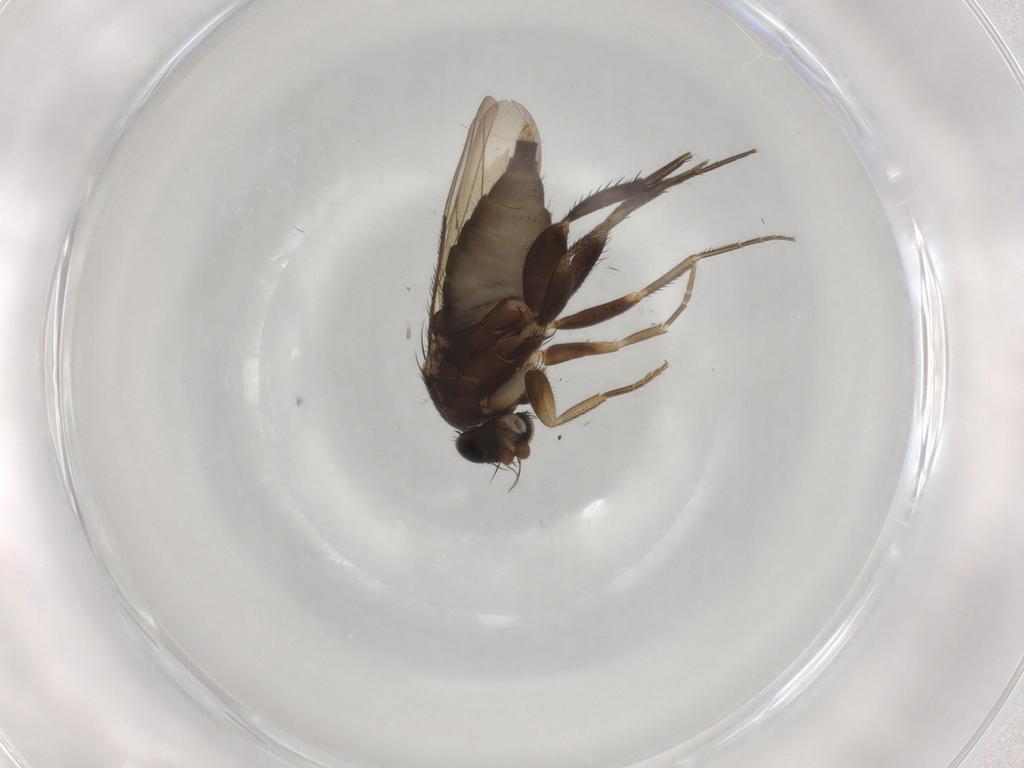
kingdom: Animalia
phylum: Arthropoda
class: Insecta
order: Diptera
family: Phoridae
